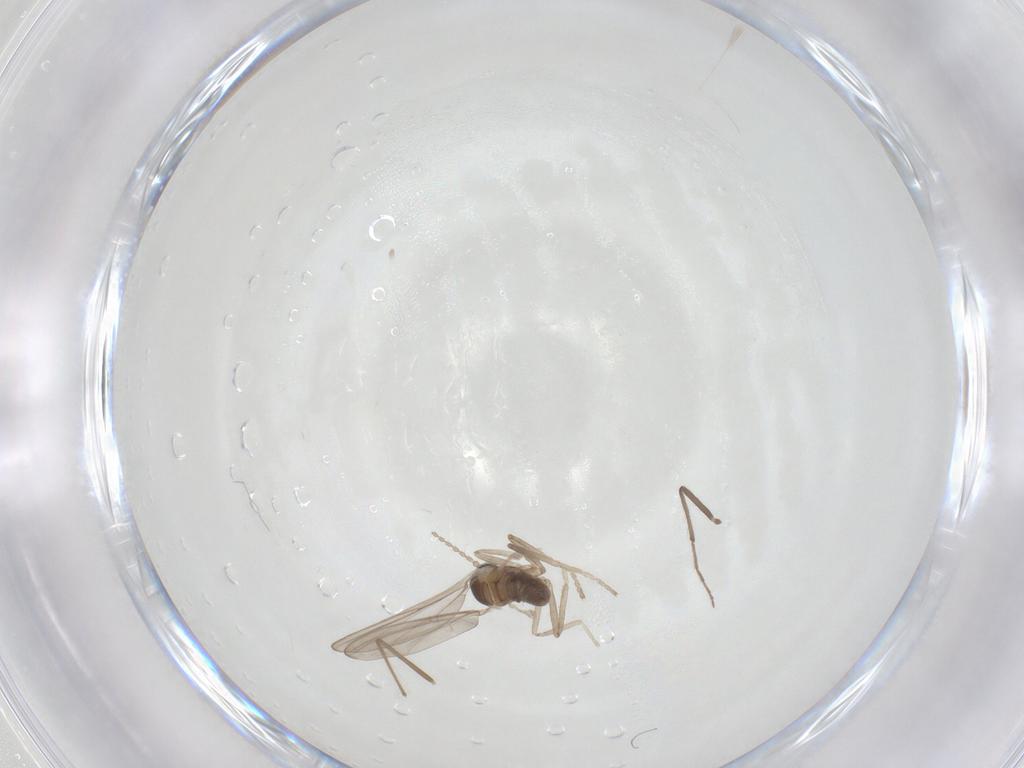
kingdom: Animalia
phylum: Arthropoda
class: Insecta
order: Diptera
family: Cecidomyiidae
